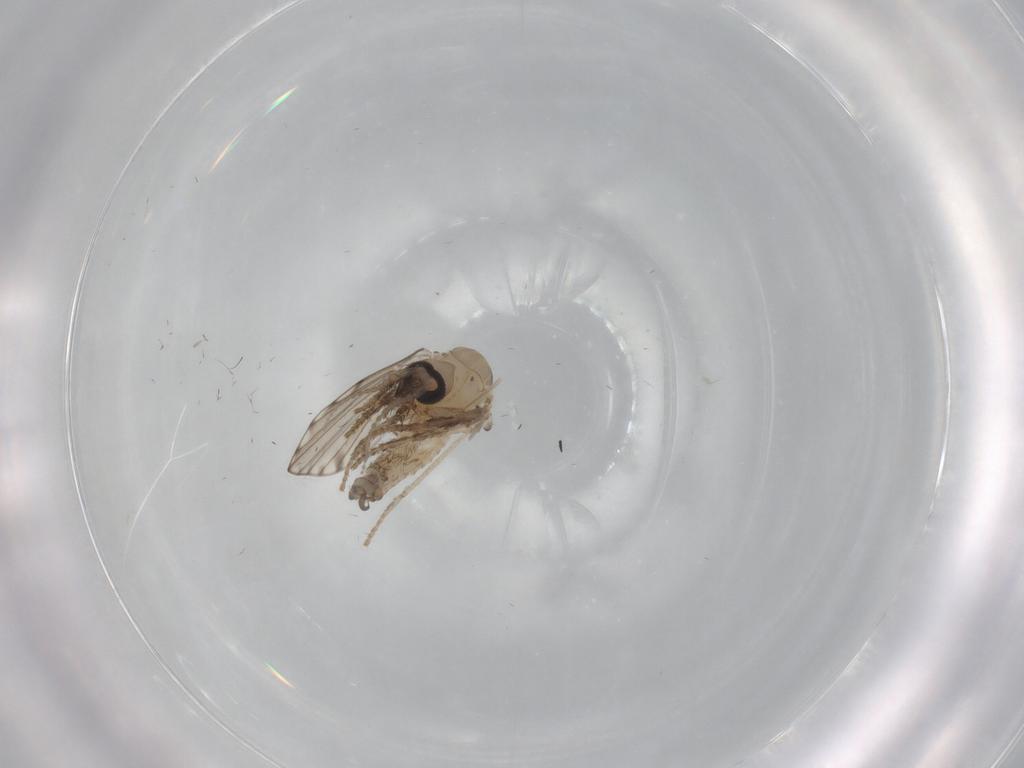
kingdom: Animalia
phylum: Arthropoda
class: Insecta
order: Diptera
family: Psychodidae
